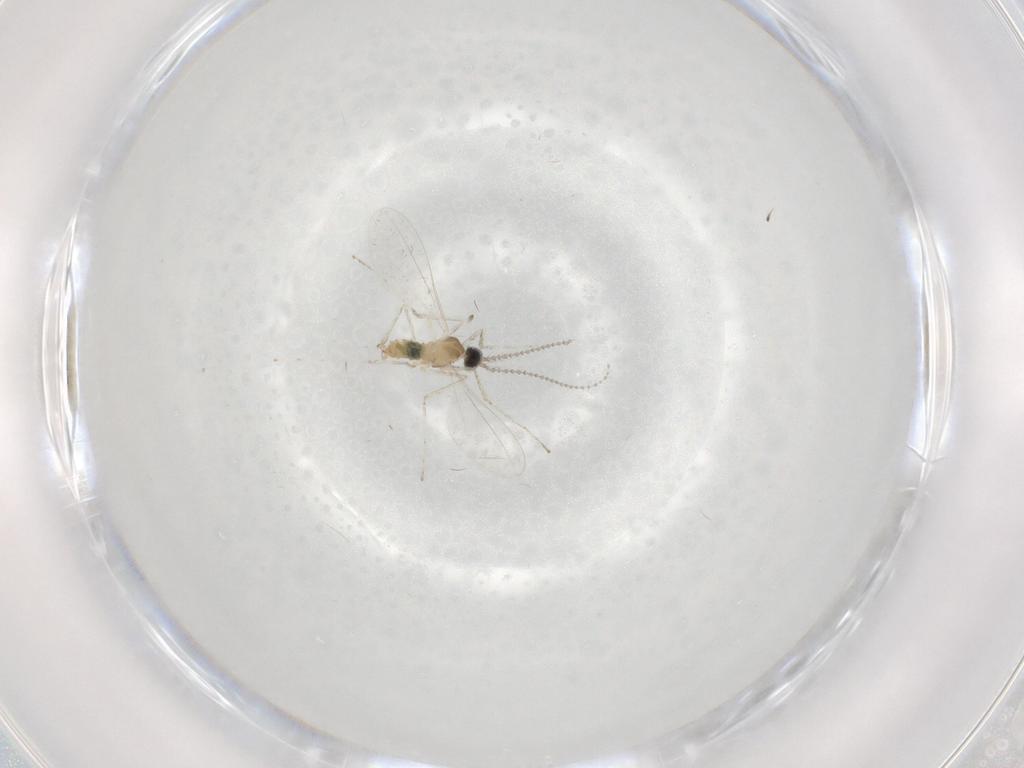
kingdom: Animalia
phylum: Arthropoda
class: Insecta
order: Diptera
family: Cecidomyiidae
